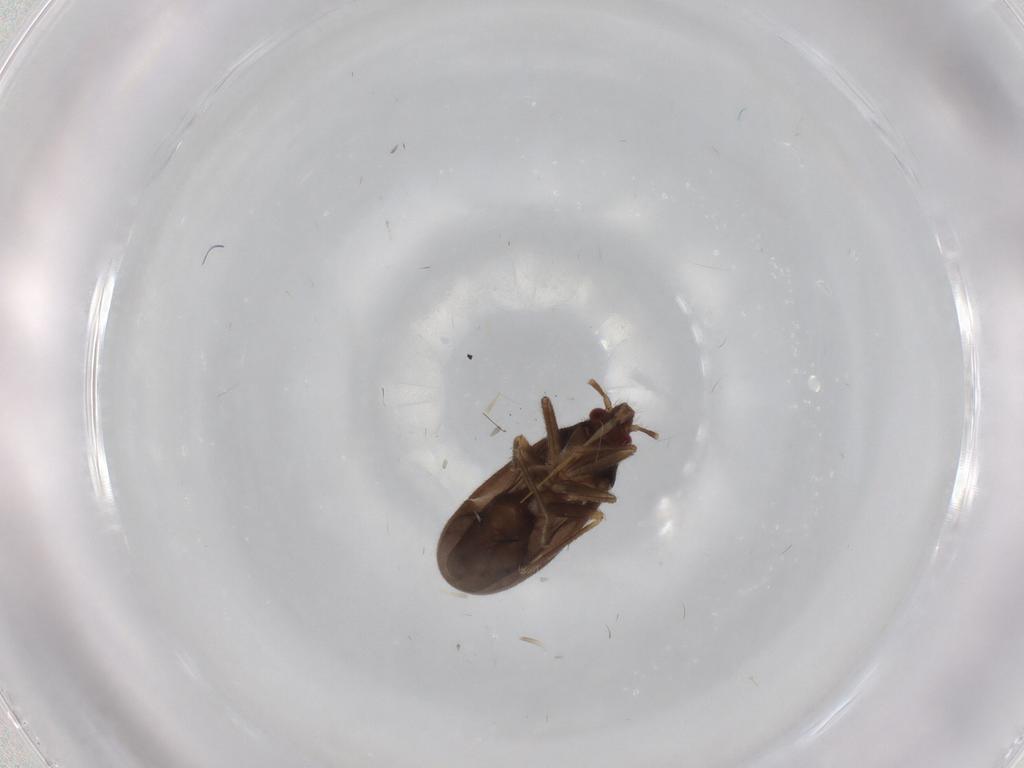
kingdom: Animalia
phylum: Arthropoda
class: Insecta
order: Hemiptera
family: Ceratocombidae
